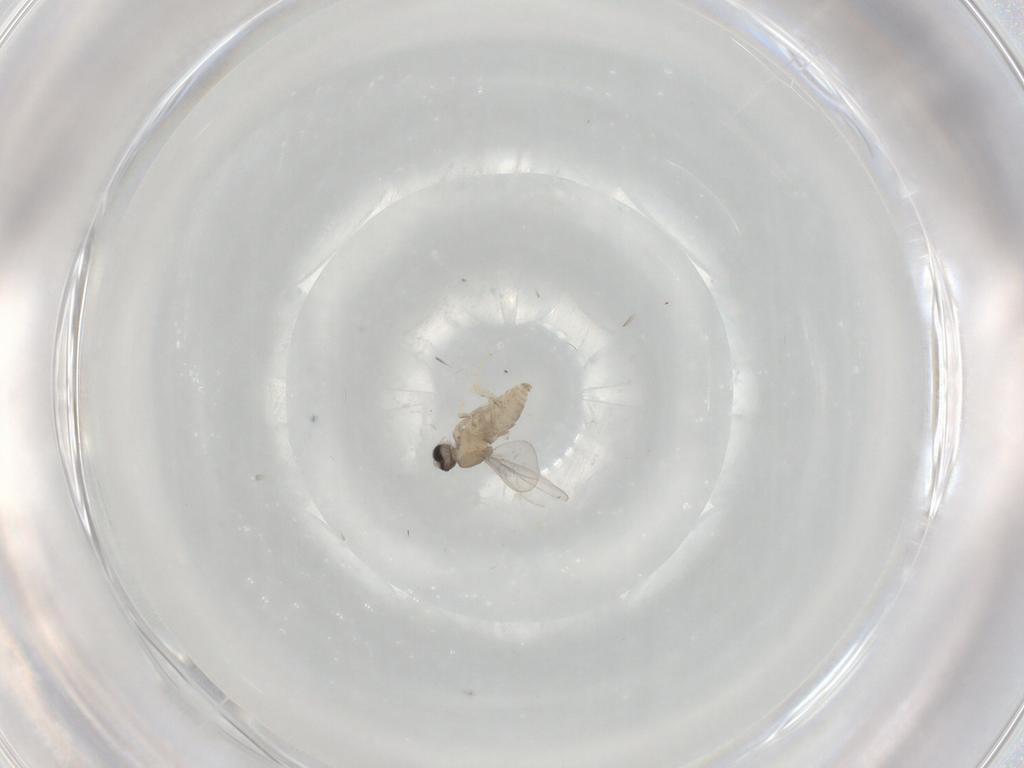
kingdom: Animalia
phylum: Arthropoda
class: Insecta
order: Diptera
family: Cecidomyiidae
